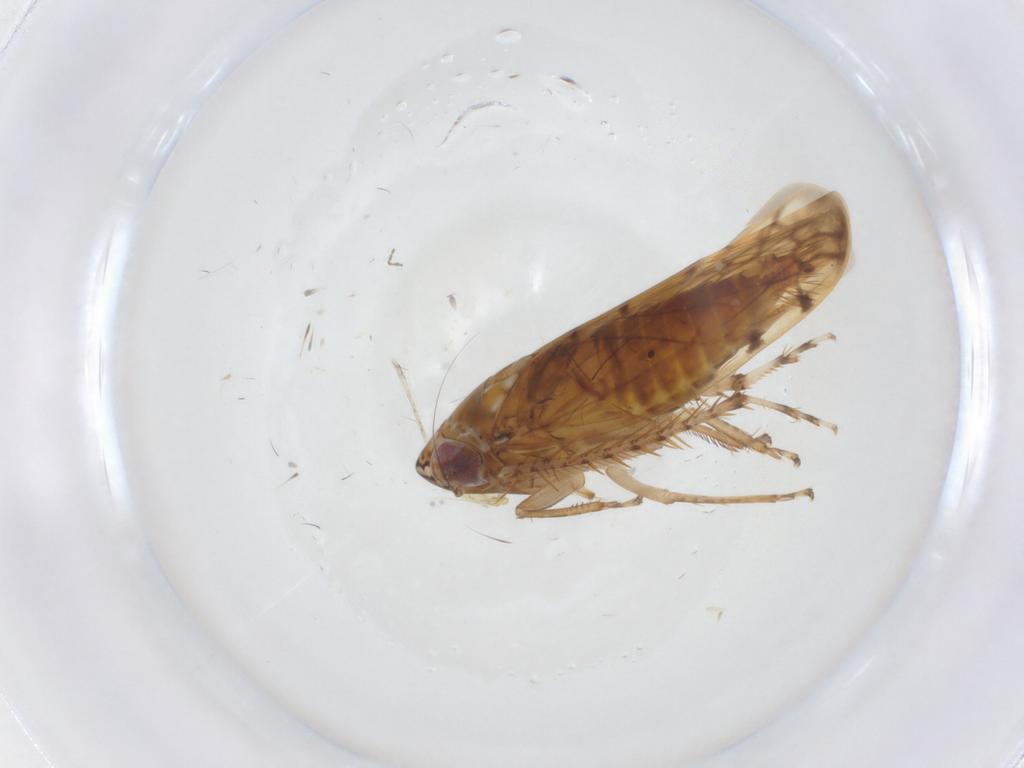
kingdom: Animalia
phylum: Arthropoda
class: Insecta
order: Hemiptera
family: Cicadellidae
